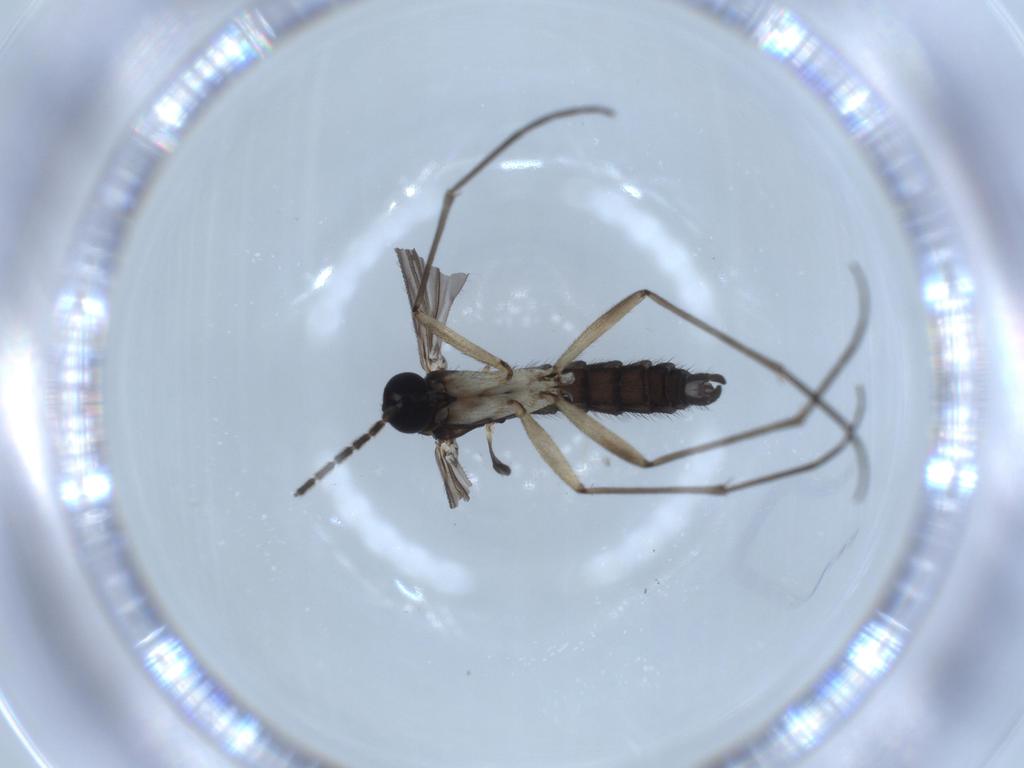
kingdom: Animalia
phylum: Arthropoda
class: Insecta
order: Diptera
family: Sciaridae
